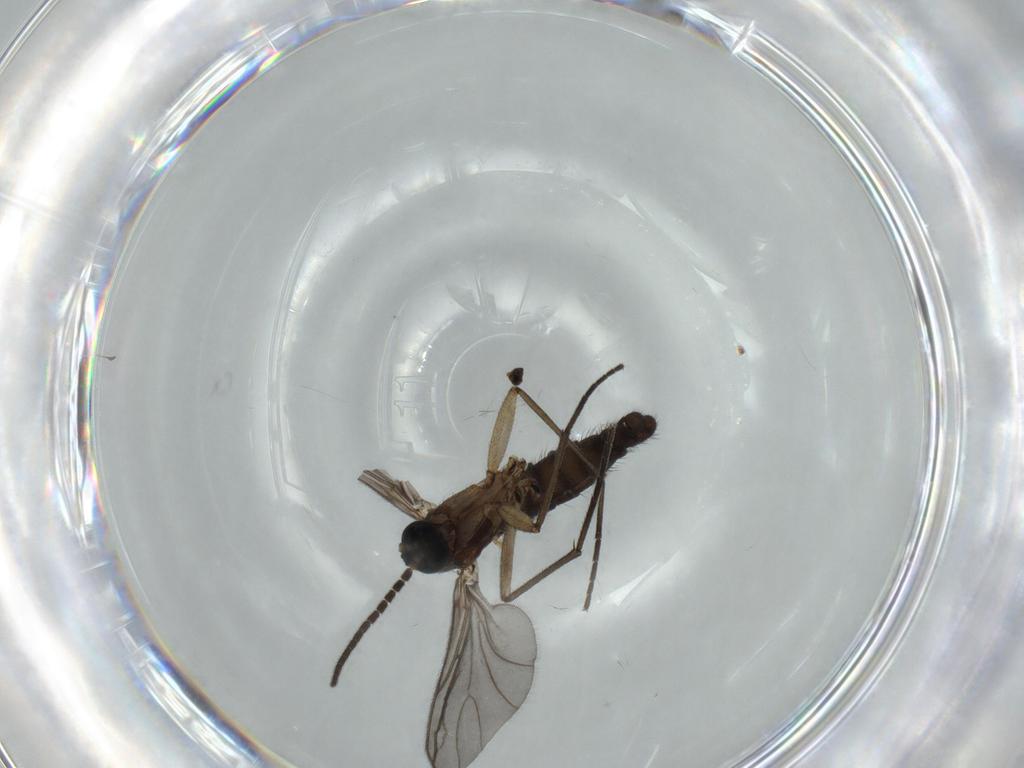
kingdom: Animalia
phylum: Arthropoda
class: Insecta
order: Diptera
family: Sciaridae
